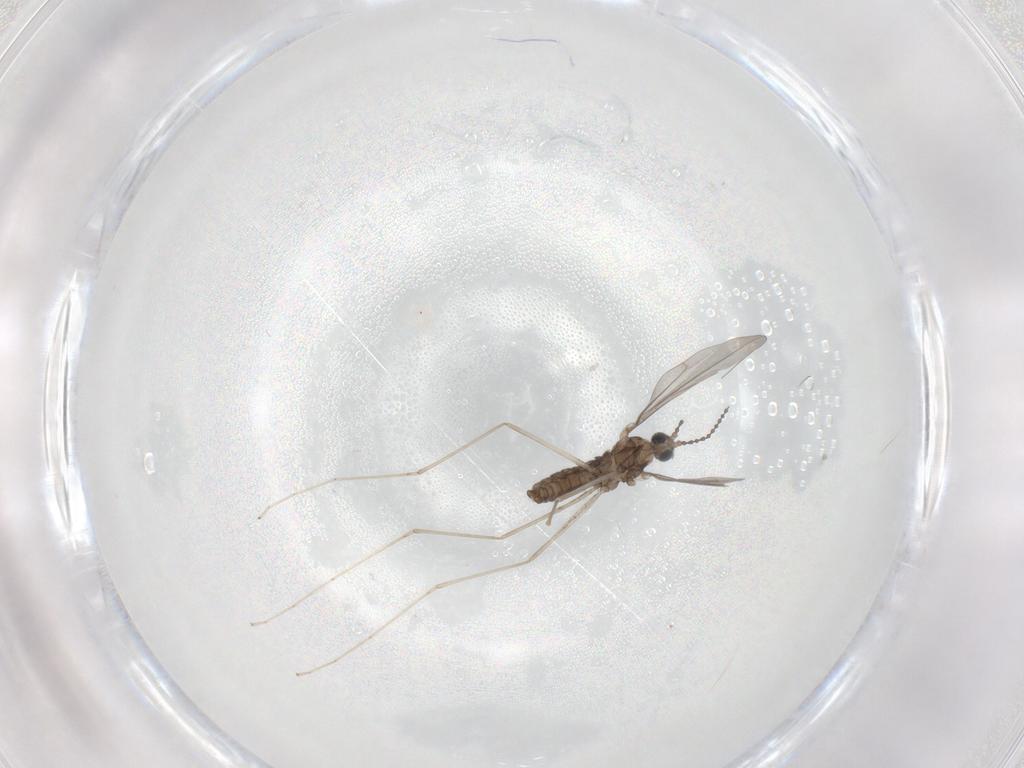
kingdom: Animalia
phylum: Arthropoda
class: Insecta
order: Diptera
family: Cecidomyiidae
